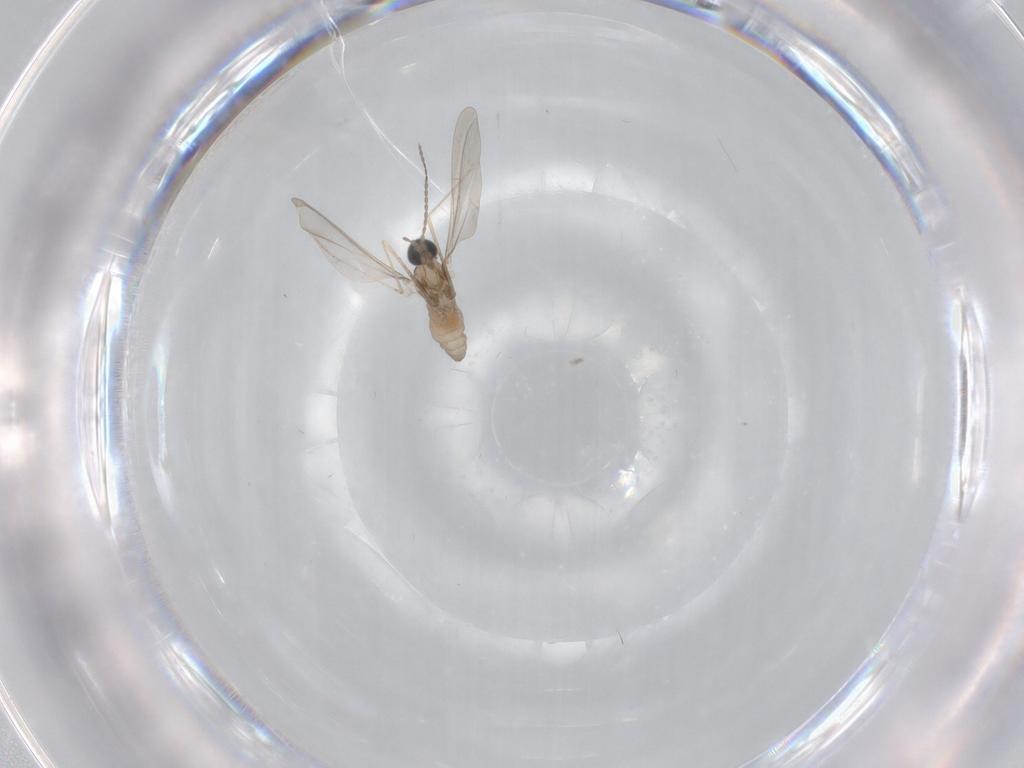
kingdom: Animalia
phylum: Arthropoda
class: Insecta
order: Diptera
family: Cecidomyiidae
